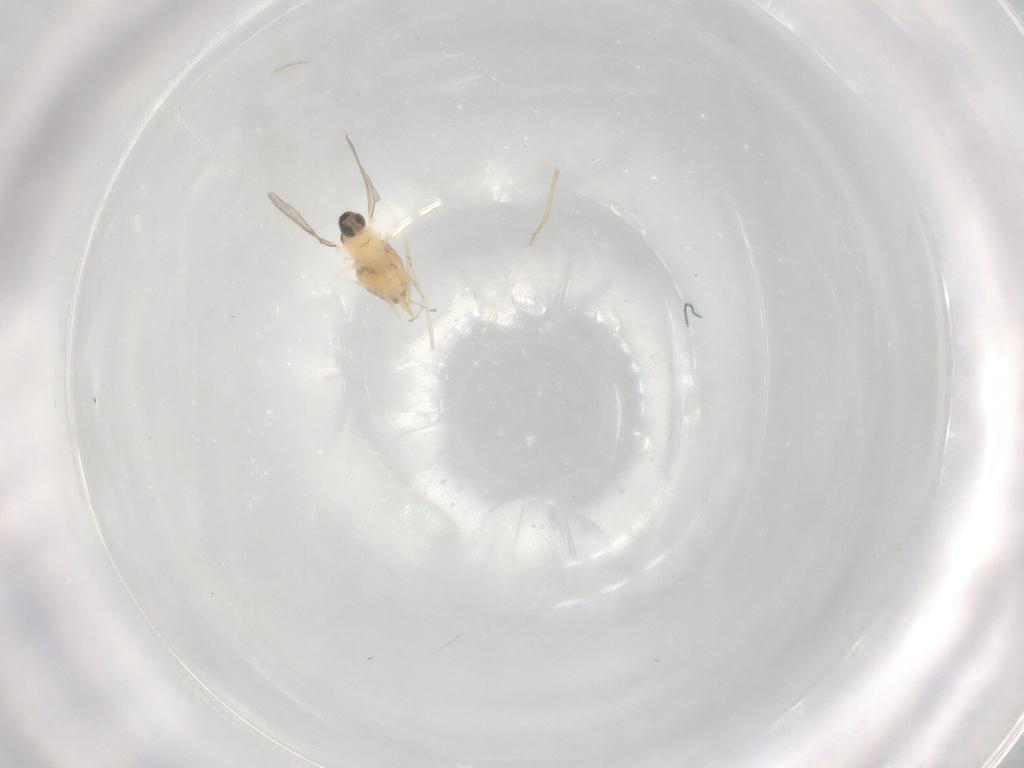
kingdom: Animalia
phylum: Arthropoda
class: Insecta
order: Diptera
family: Cecidomyiidae
